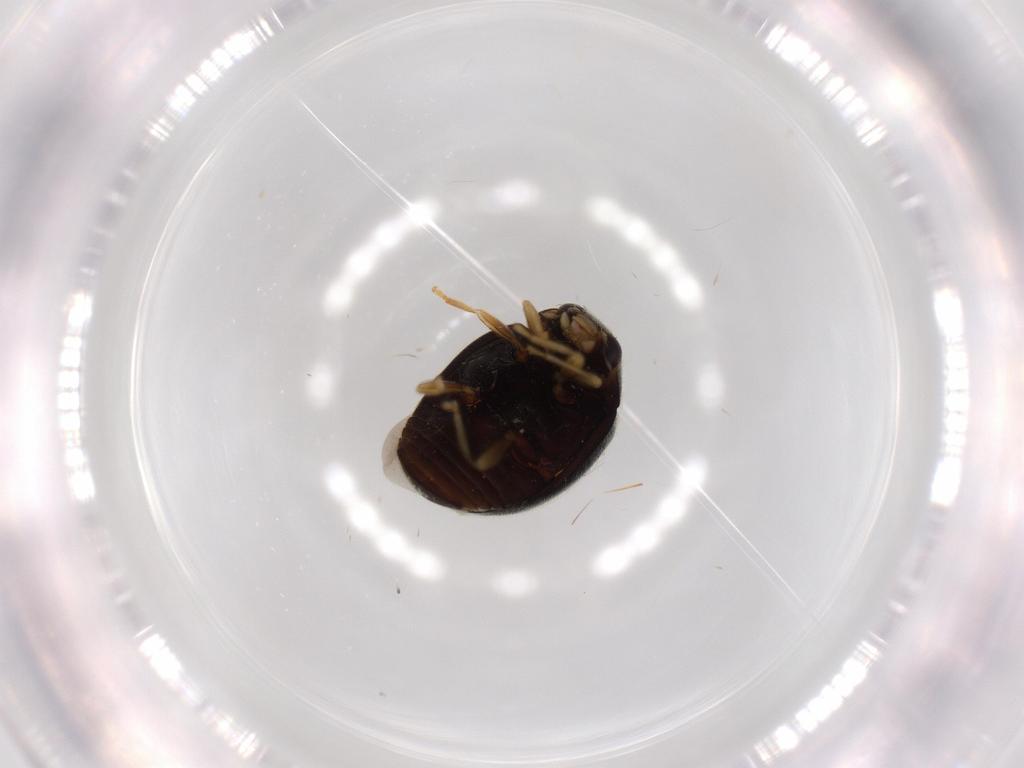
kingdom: Animalia
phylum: Arthropoda
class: Insecta
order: Coleoptera
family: Coccinellidae
